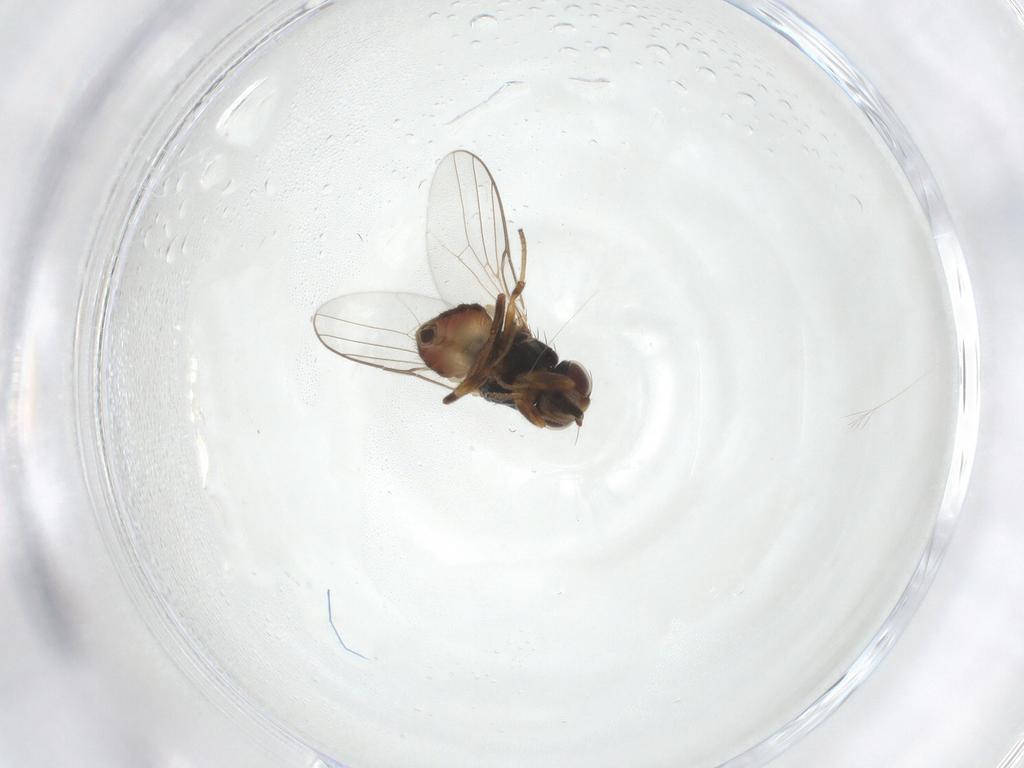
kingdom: Animalia
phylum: Arthropoda
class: Insecta
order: Diptera
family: Chloropidae
